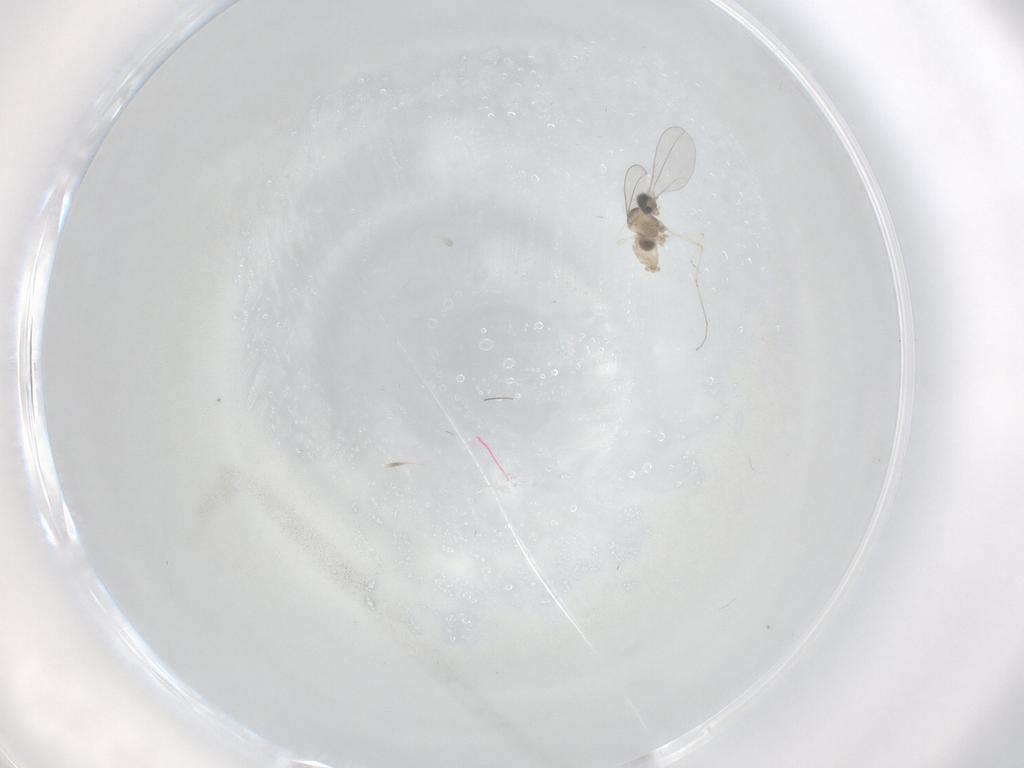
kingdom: Animalia
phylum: Arthropoda
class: Insecta
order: Diptera
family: Cecidomyiidae
